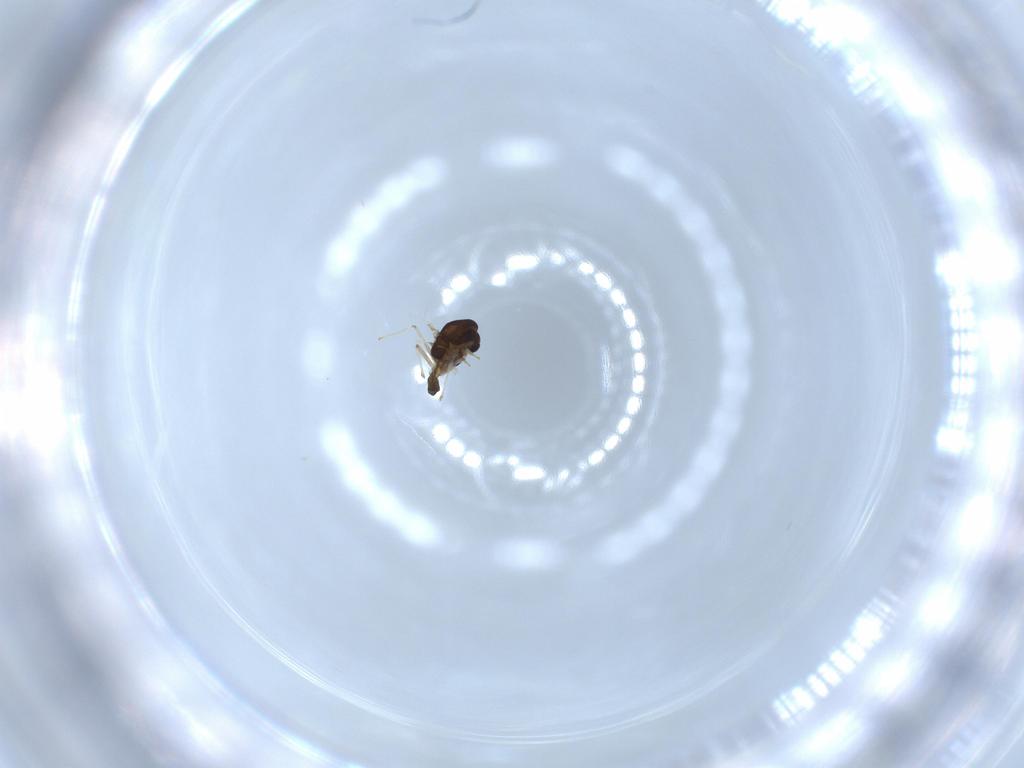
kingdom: Animalia
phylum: Arthropoda
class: Insecta
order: Diptera
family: Chironomidae
